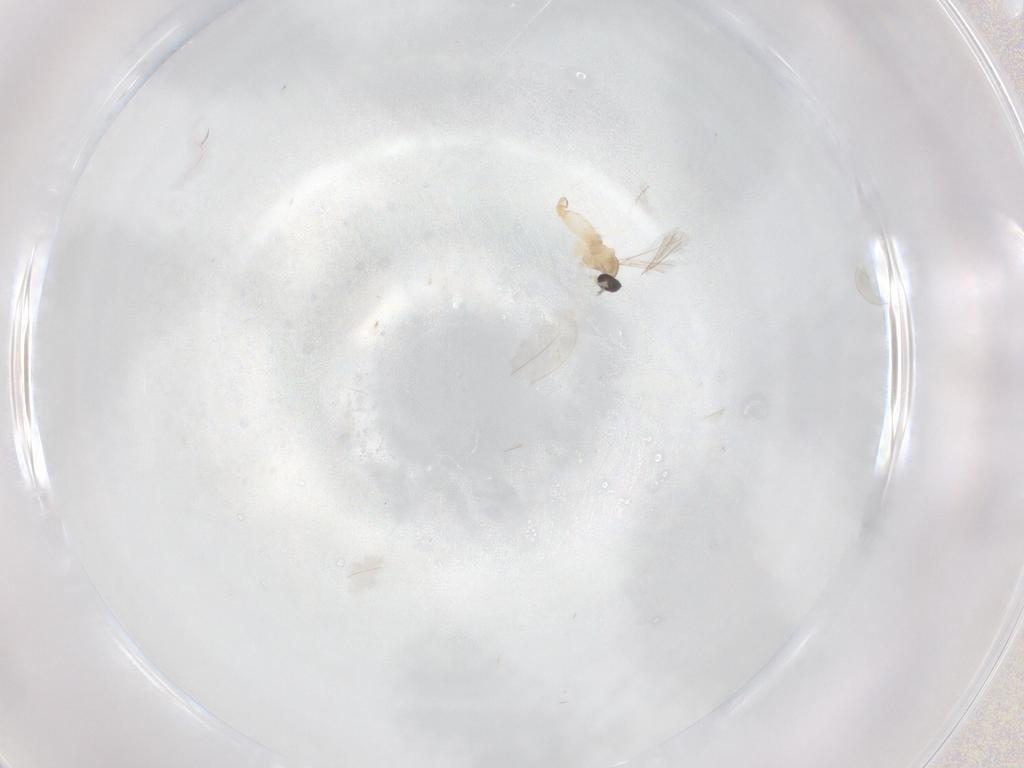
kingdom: Animalia
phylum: Arthropoda
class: Insecta
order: Diptera
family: Cecidomyiidae
